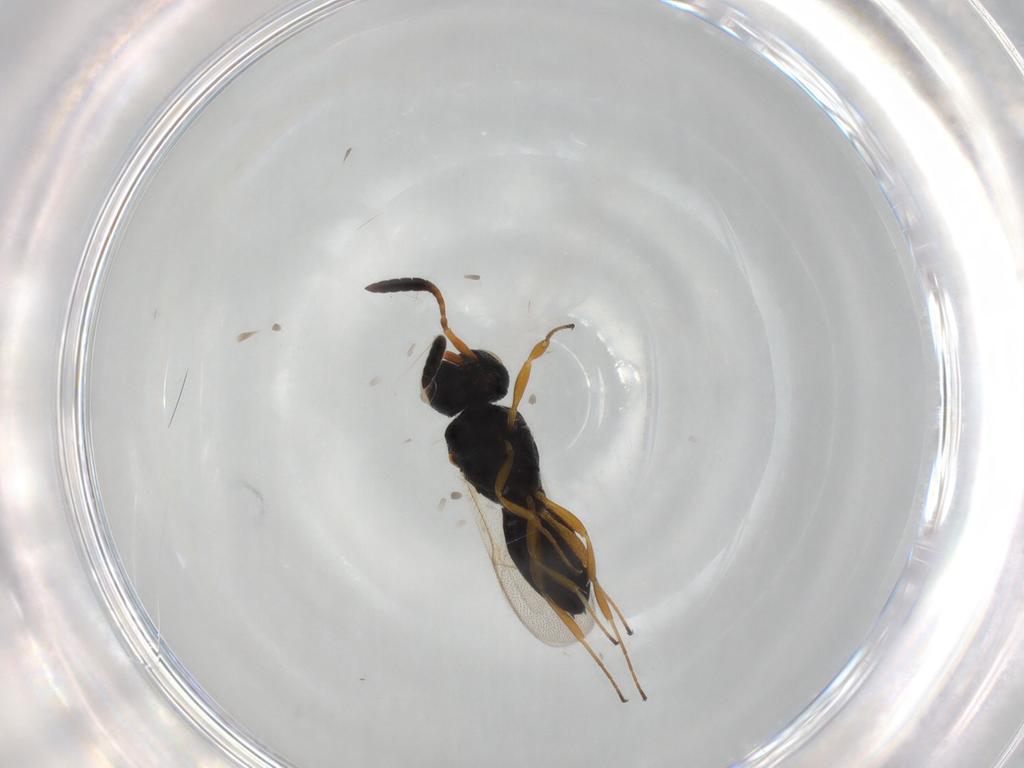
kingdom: Animalia
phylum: Arthropoda
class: Insecta
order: Hymenoptera
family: Scelionidae
